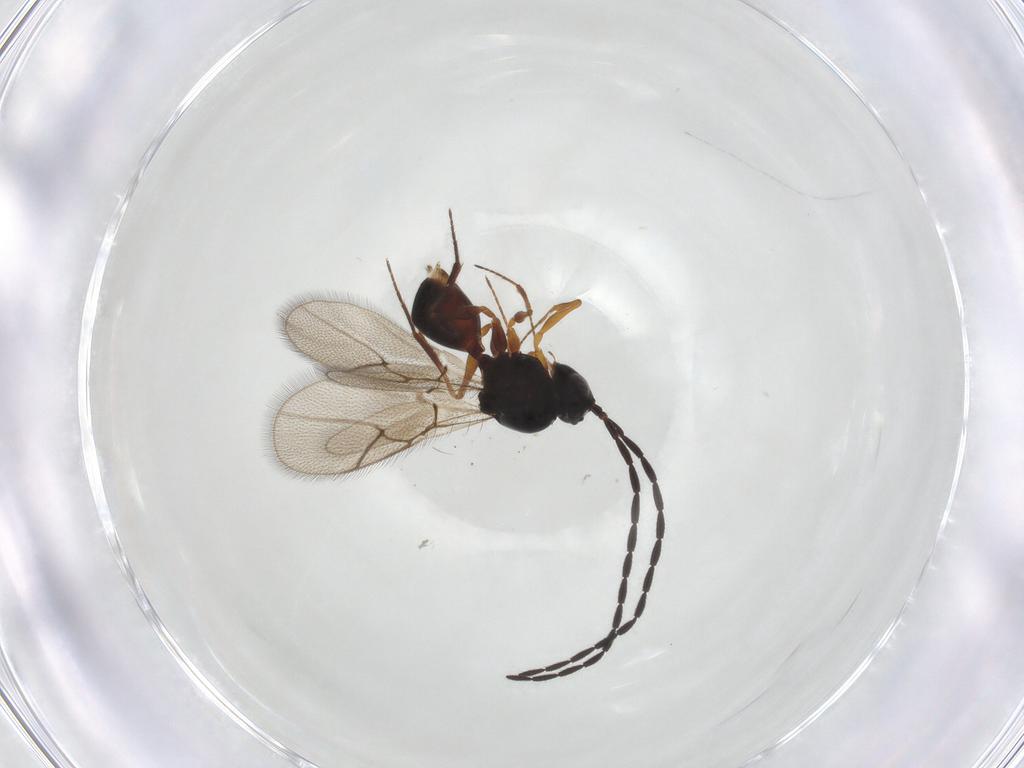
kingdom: Animalia
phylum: Arthropoda
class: Insecta
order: Hymenoptera
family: Figitidae
